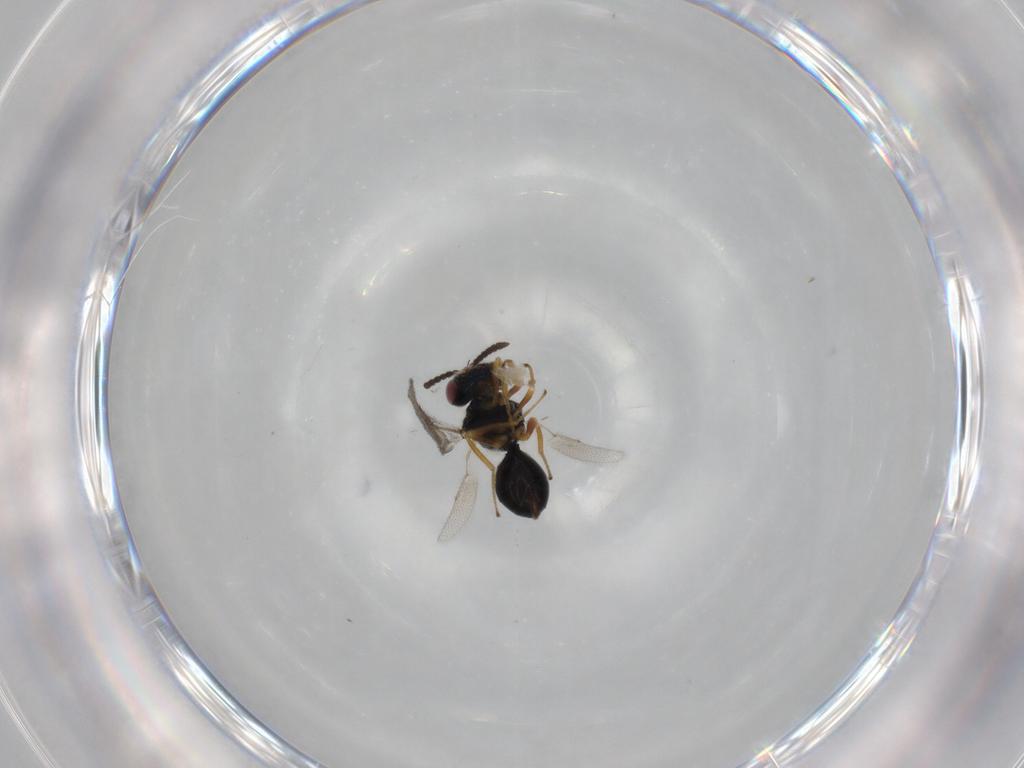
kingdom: Animalia
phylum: Arthropoda
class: Insecta
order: Hymenoptera
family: Pteromalidae
